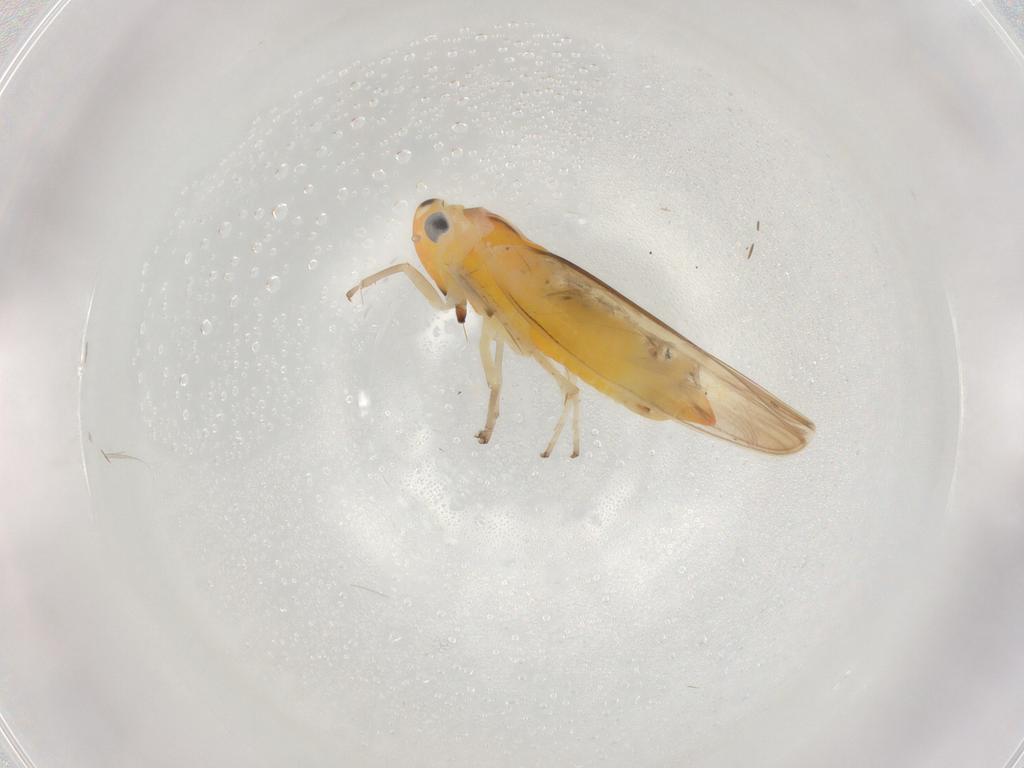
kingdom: Animalia
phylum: Arthropoda
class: Insecta
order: Hemiptera
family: Cicadellidae
